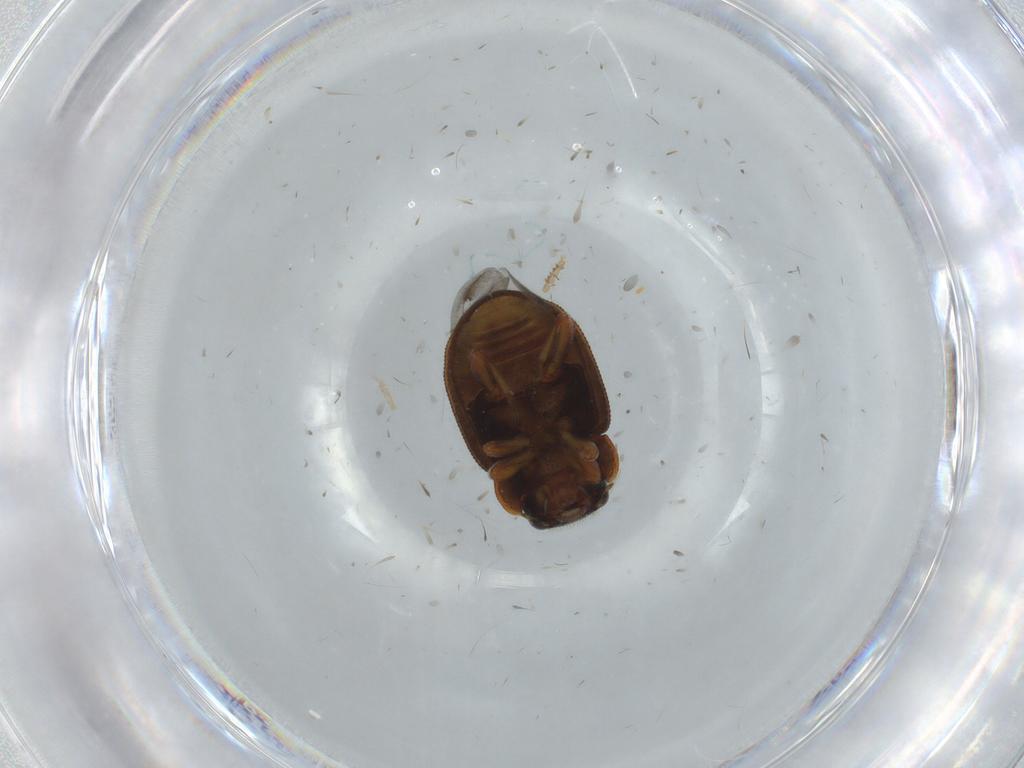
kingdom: Animalia
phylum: Arthropoda
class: Insecta
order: Coleoptera
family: Coccinellidae
